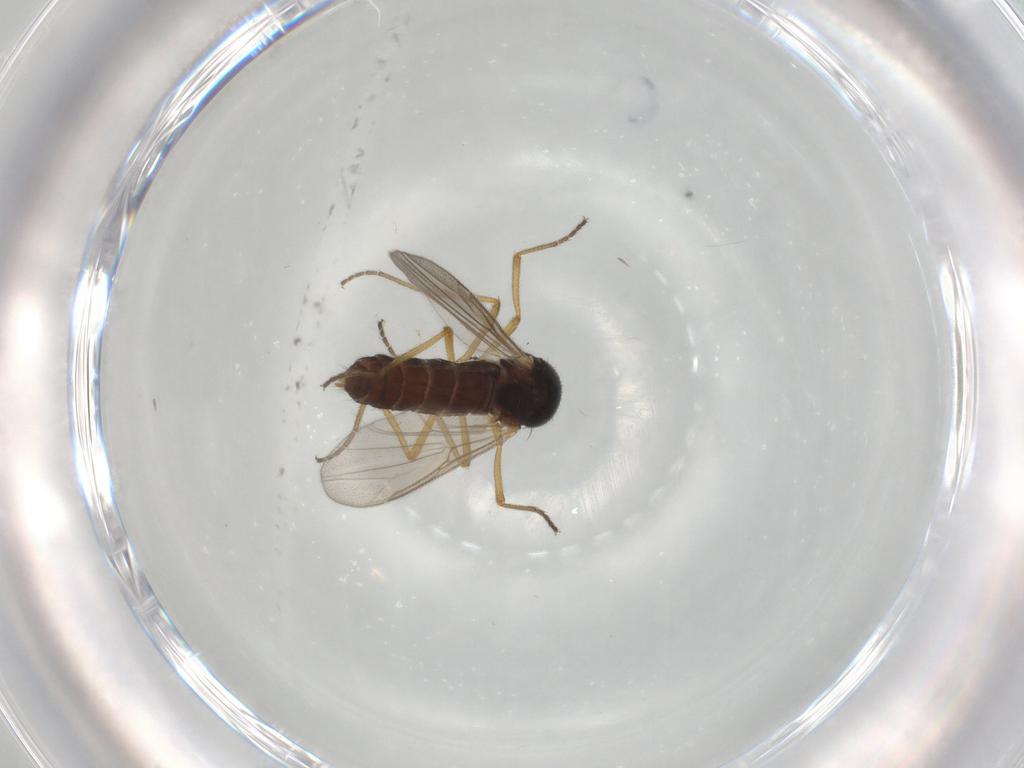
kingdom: Animalia
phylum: Arthropoda
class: Insecta
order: Diptera
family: Ceratopogonidae
